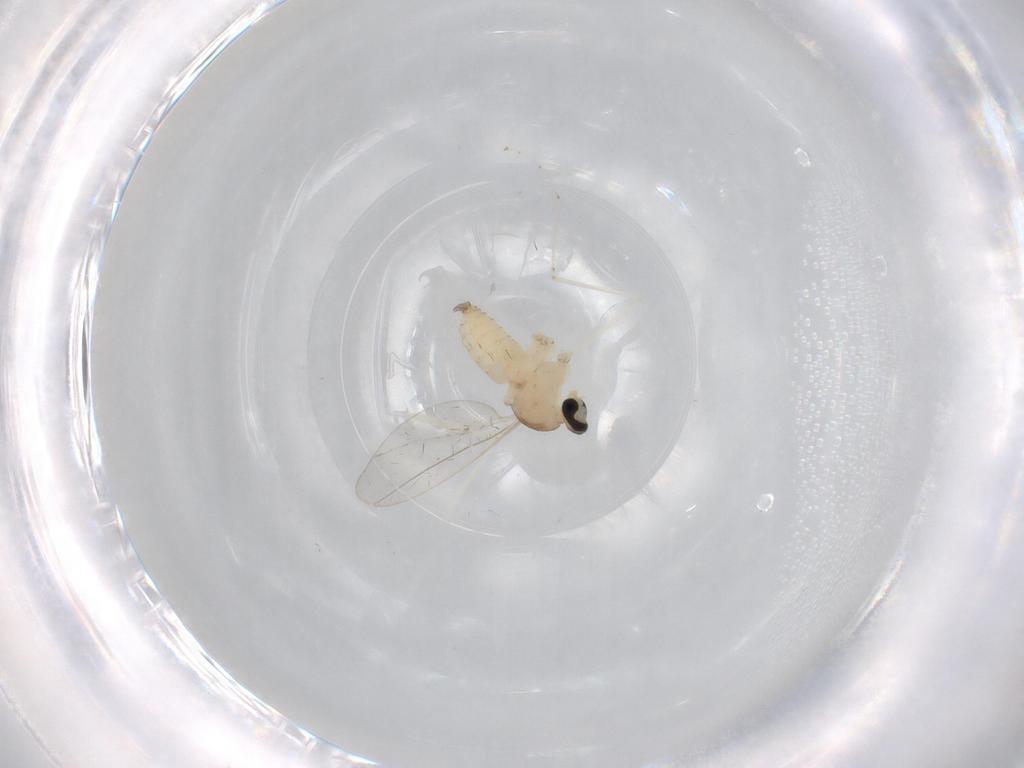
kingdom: Animalia
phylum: Arthropoda
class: Insecta
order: Diptera
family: Cecidomyiidae
